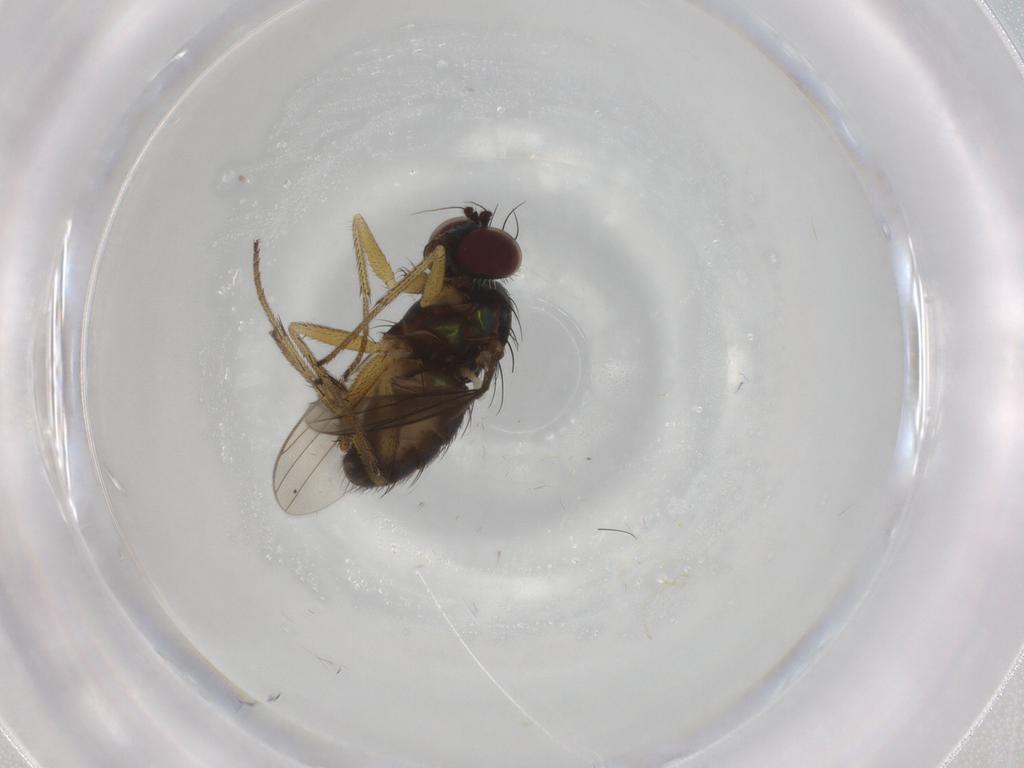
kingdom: Animalia
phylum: Arthropoda
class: Insecta
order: Diptera
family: Dolichopodidae
